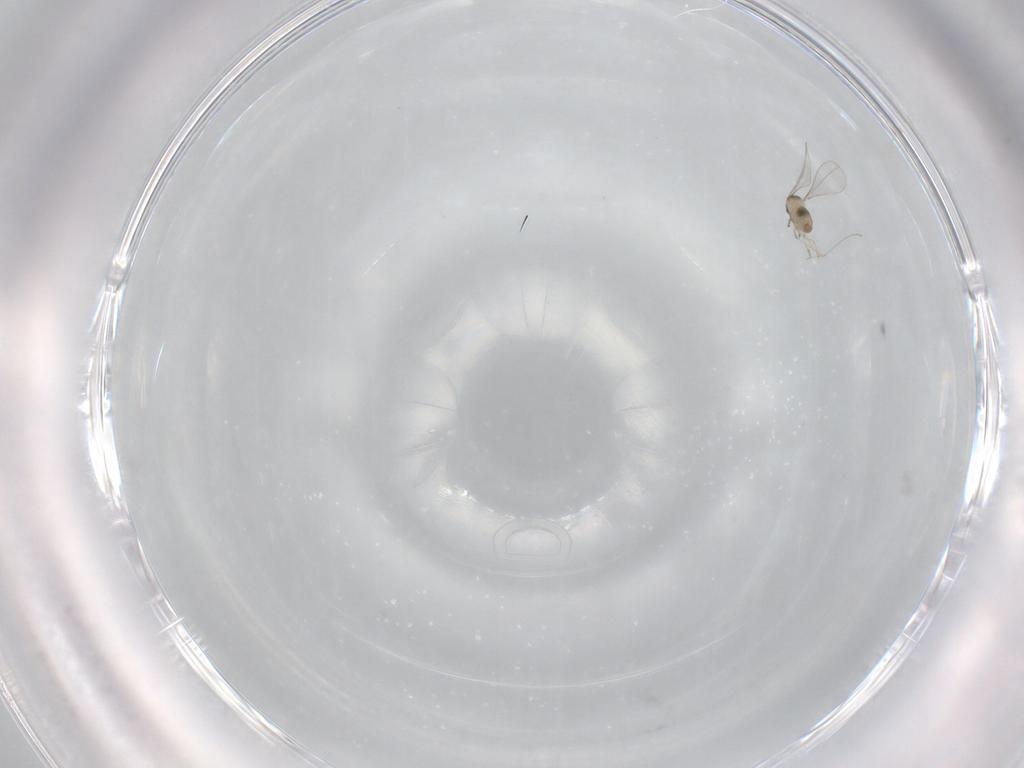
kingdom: Animalia
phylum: Arthropoda
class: Insecta
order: Diptera
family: Cecidomyiidae
